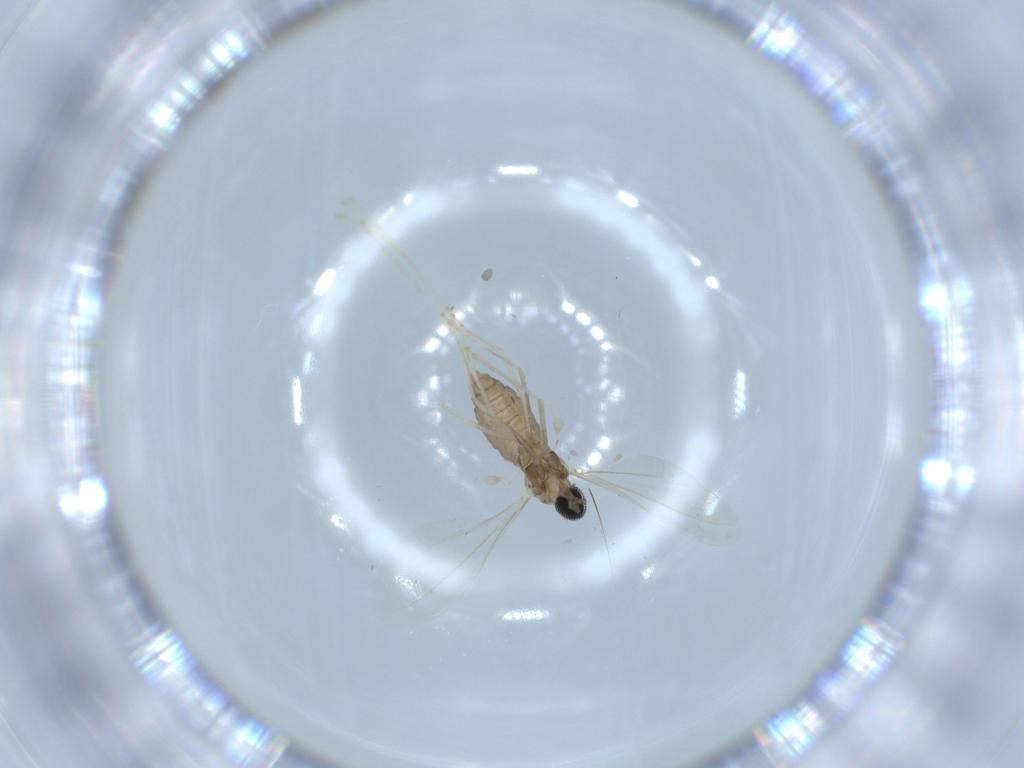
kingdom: Animalia
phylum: Arthropoda
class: Insecta
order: Diptera
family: Cecidomyiidae
